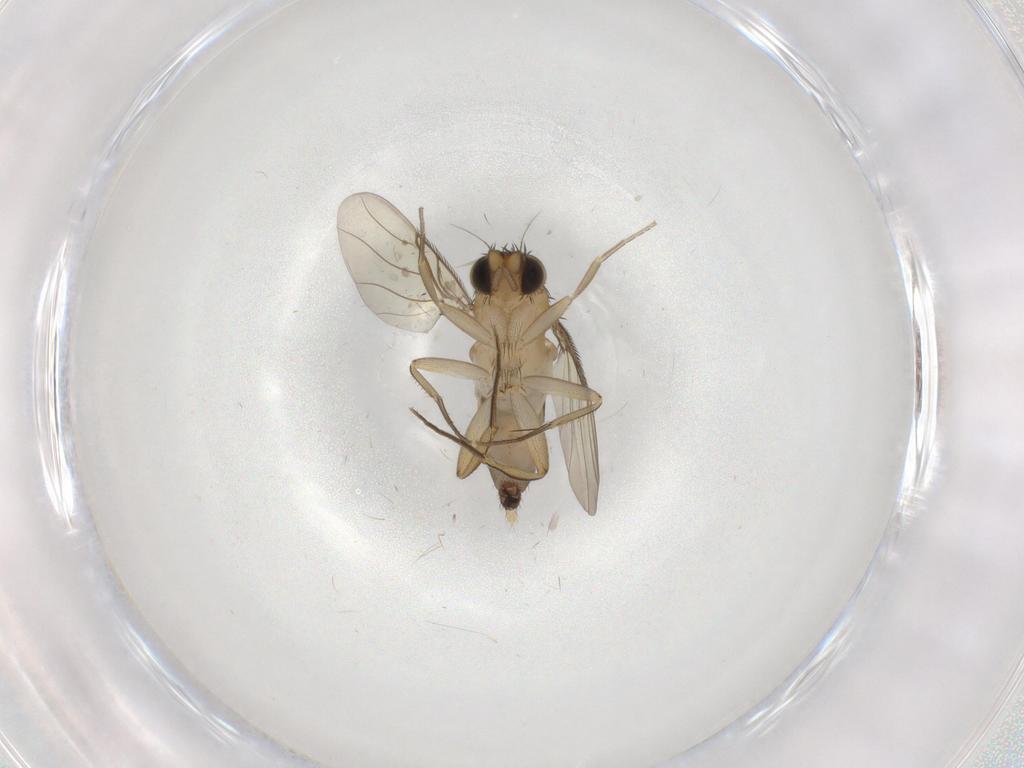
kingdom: Animalia
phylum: Arthropoda
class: Insecta
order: Diptera
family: Phoridae
